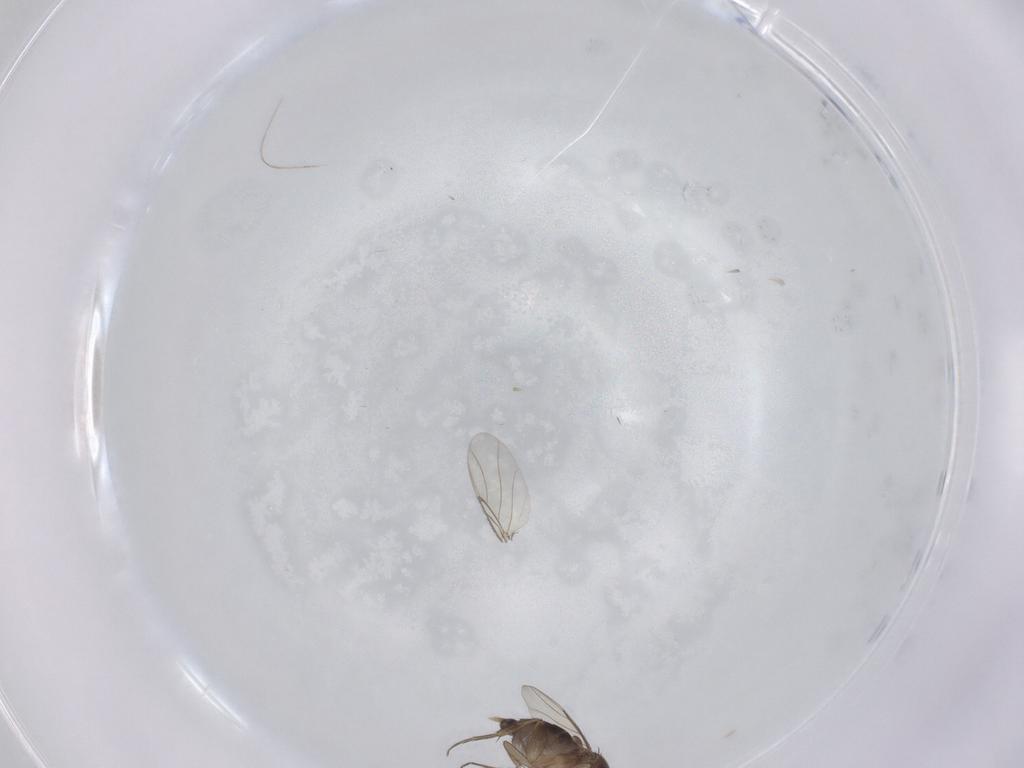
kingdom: Animalia
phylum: Arthropoda
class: Insecta
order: Diptera
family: Phoridae
